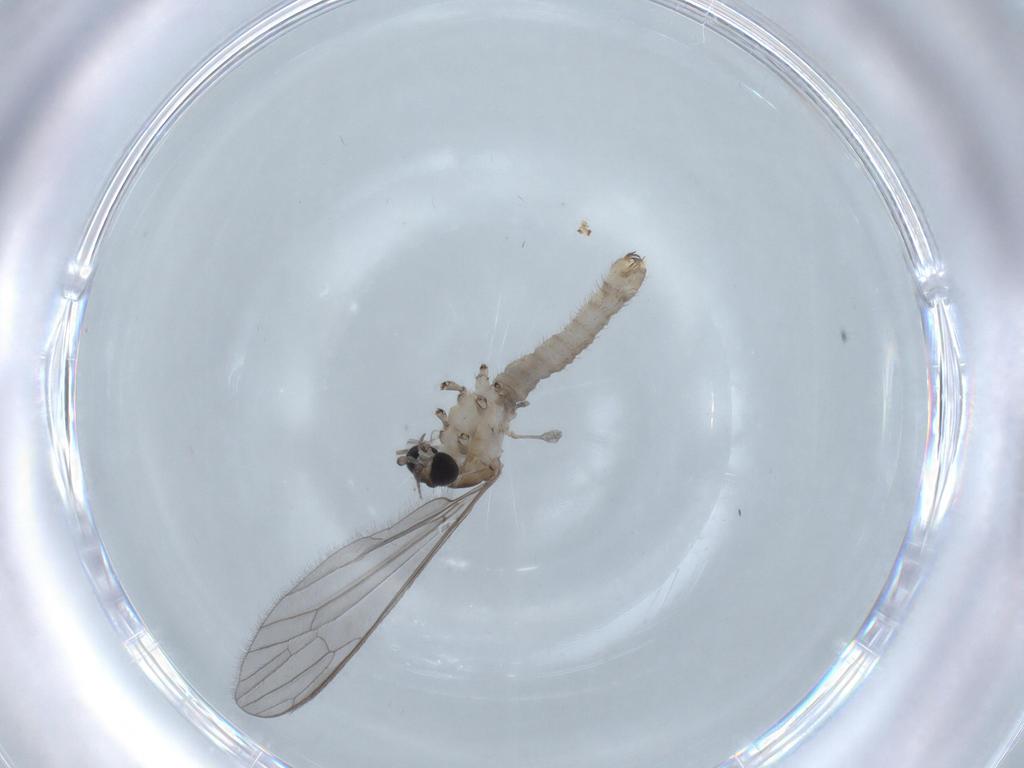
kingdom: Animalia
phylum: Arthropoda
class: Insecta
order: Diptera
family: Limoniidae
